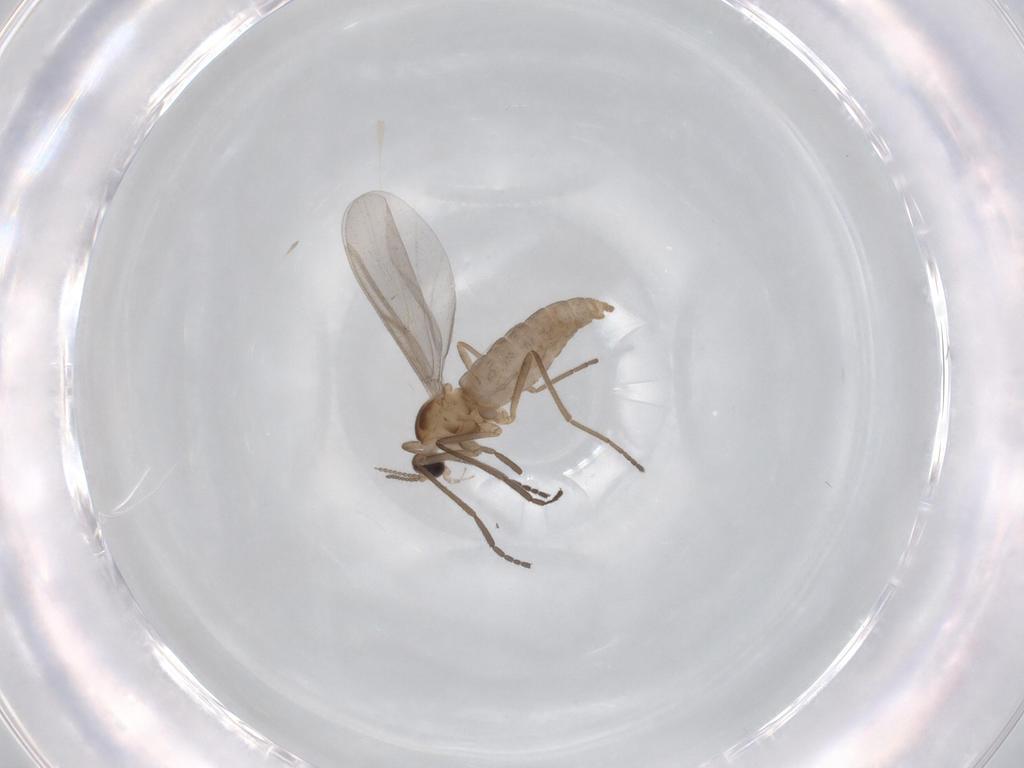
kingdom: Animalia
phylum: Arthropoda
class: Insecta
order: Diptera
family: Cecidomyiidae
